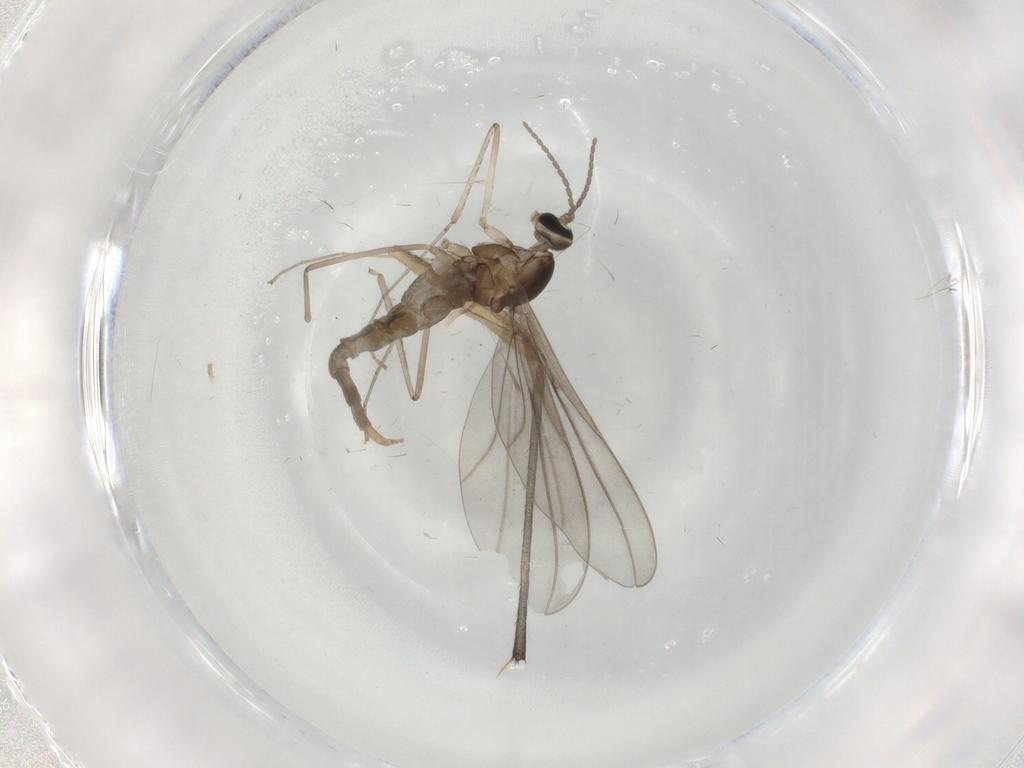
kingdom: Animalia
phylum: Arthropoda
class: Insecta
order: Diptera
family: Cecidomyiidae
